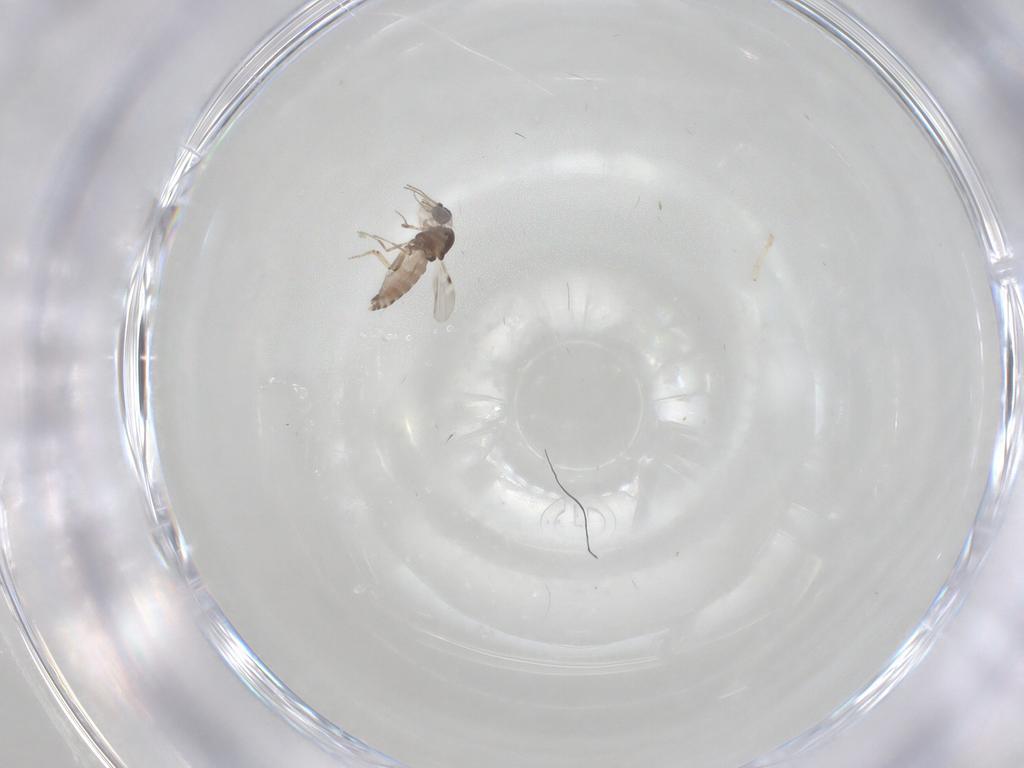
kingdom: Animalia
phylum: Arthropoda
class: Insecta
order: Diptera
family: Cecidomyiidae
